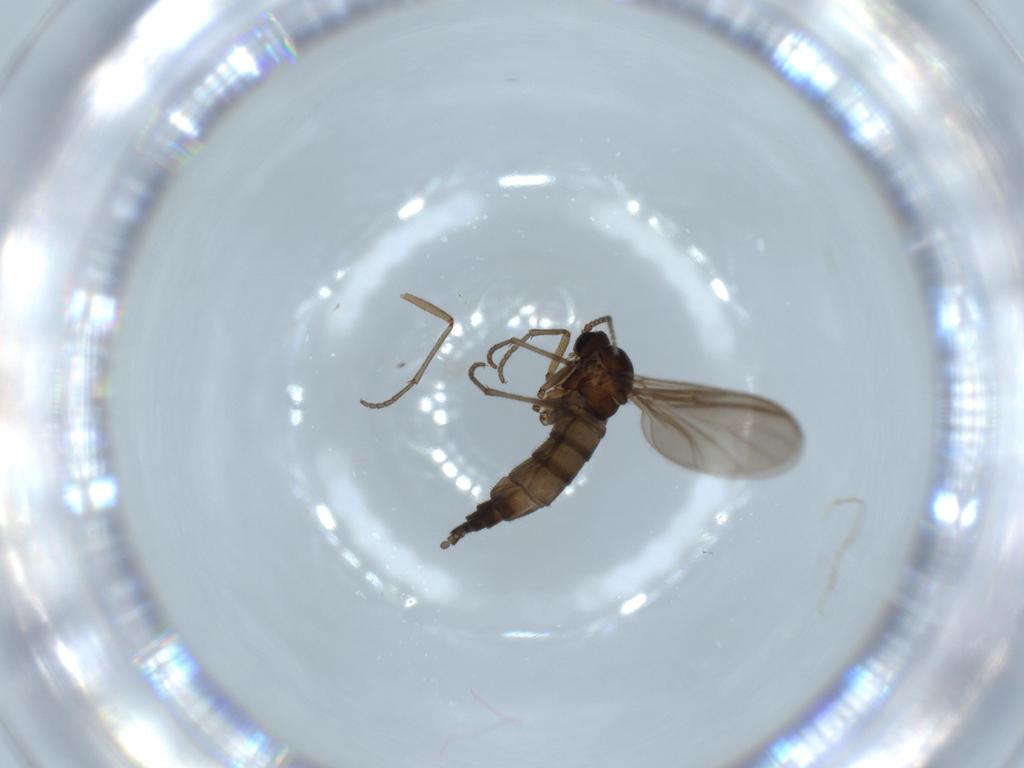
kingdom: Animalia
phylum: Arthropoda
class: Insecta
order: Diptera
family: Sciaridae
